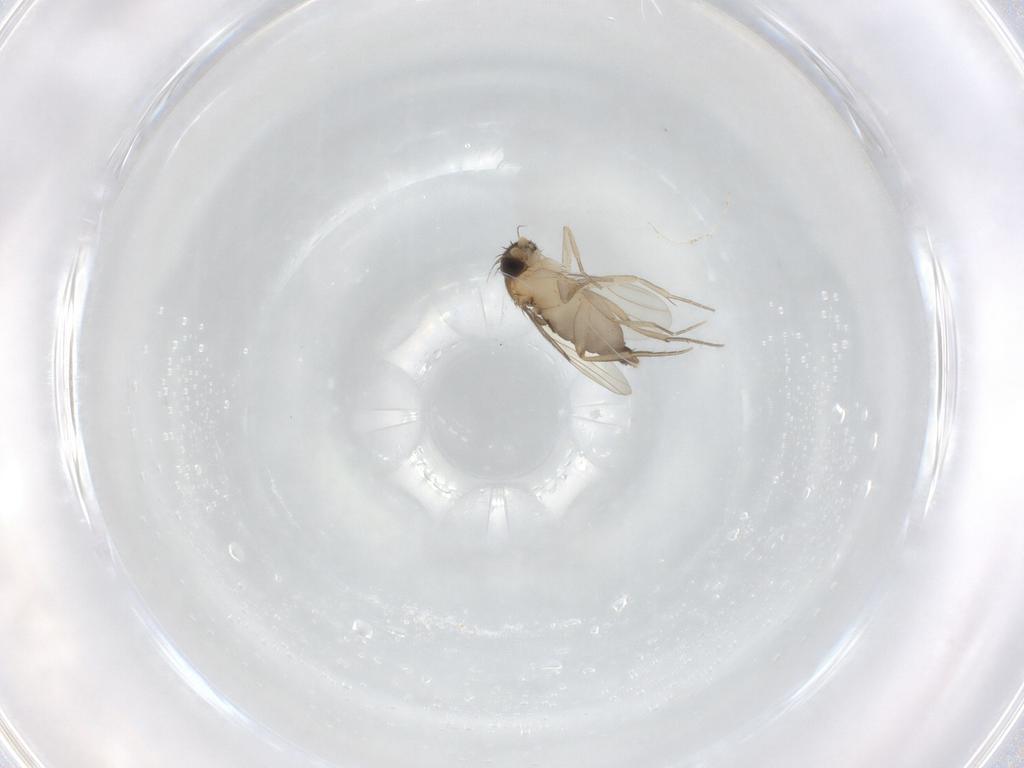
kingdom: Animalia
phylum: Arthropoda
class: Insecta
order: Diptera
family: Phoridae
